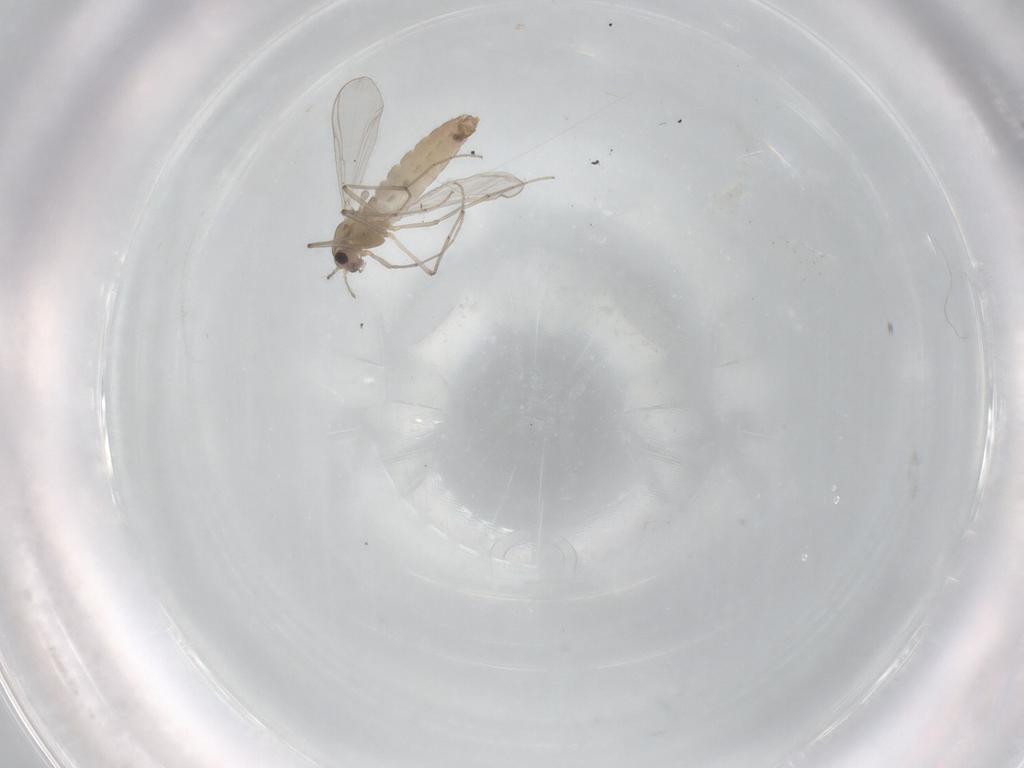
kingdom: Animalia
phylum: Arthropoda
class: Insecta
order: Diptera
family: Chironomidae
